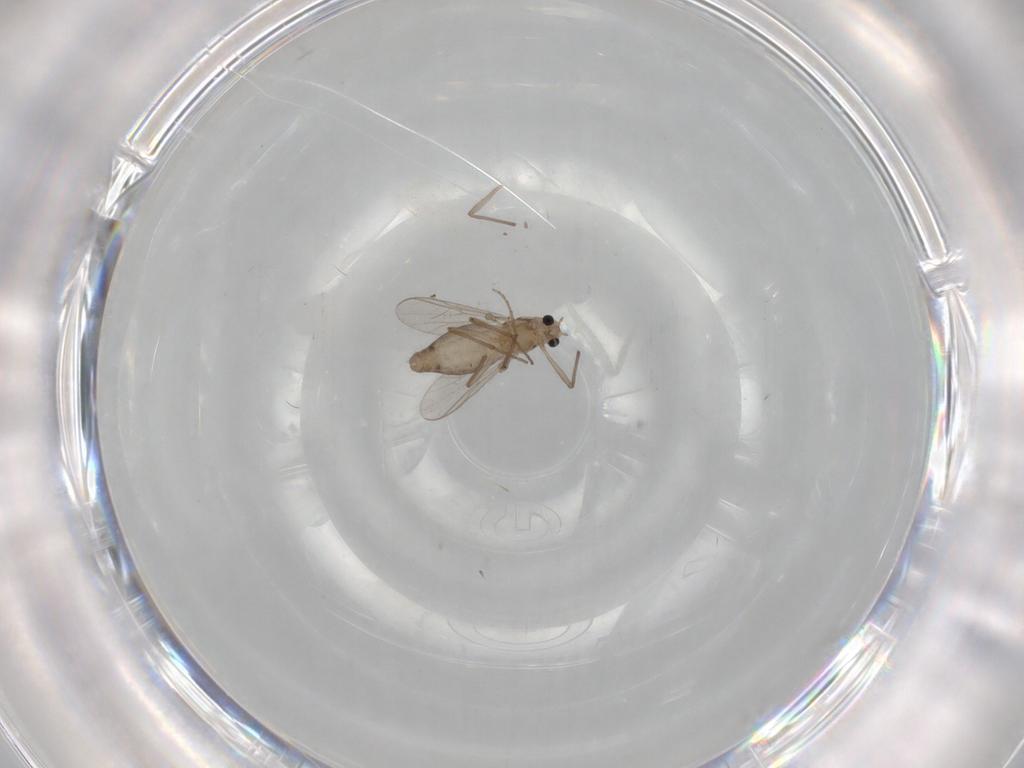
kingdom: Animalia
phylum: Arthropoda
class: Insecta
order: Diptera
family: Chironomidae
